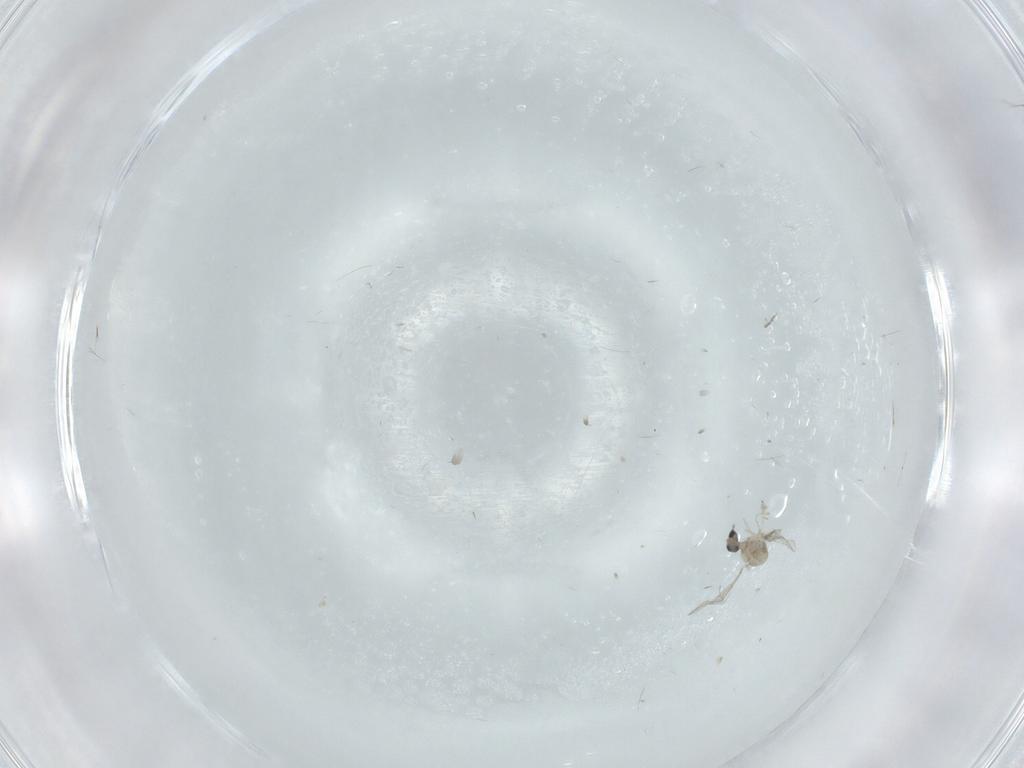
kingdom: Animalia
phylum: Arthropoda
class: Insecta
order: Diptera
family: Cecidomyiidae
